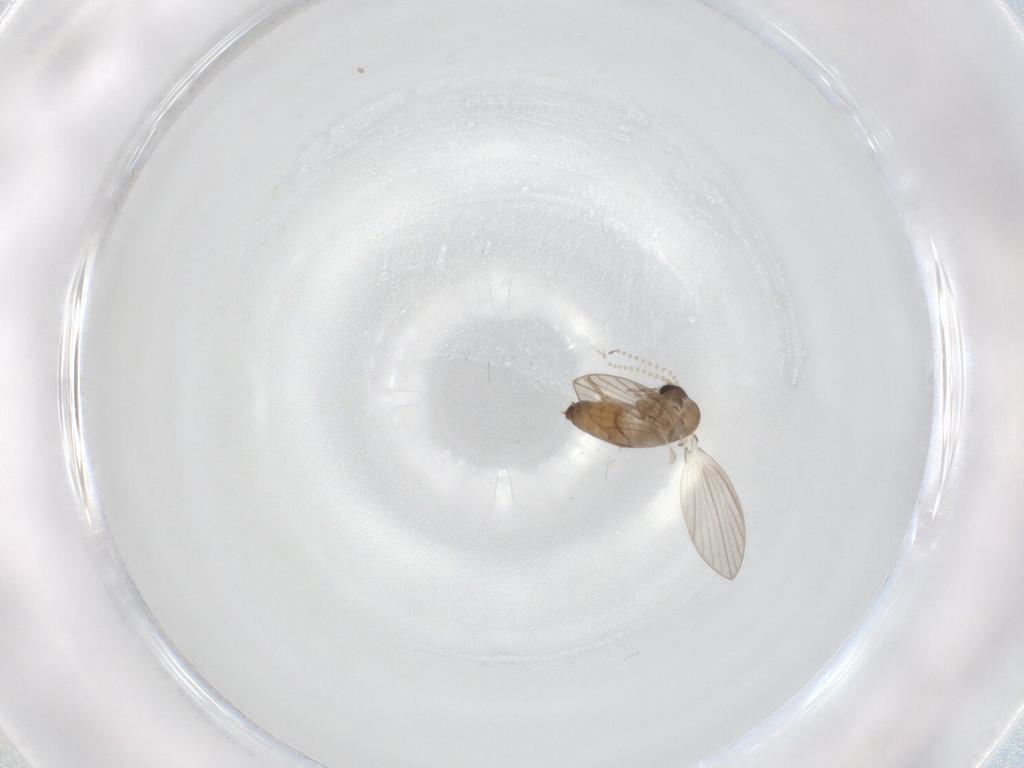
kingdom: Animalia
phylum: Arthropoda
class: Insecta
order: Diptera
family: Psychodidae
